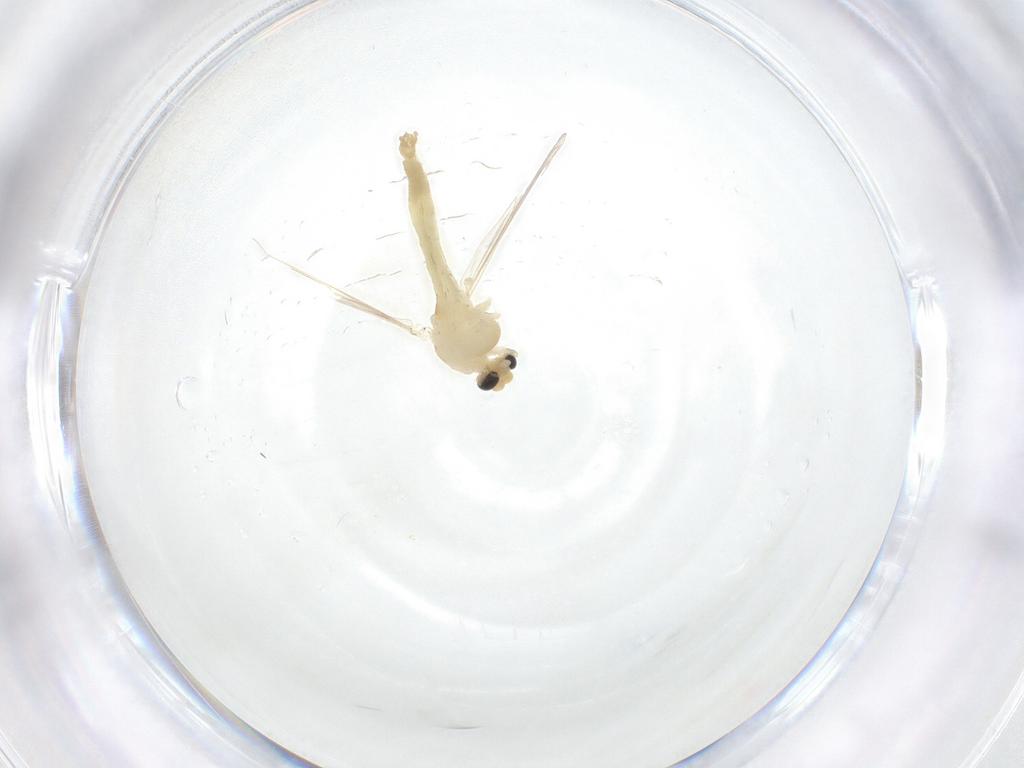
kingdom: Animalia
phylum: Arthropoda
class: Insecta
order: Diptera
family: Chironomidae
